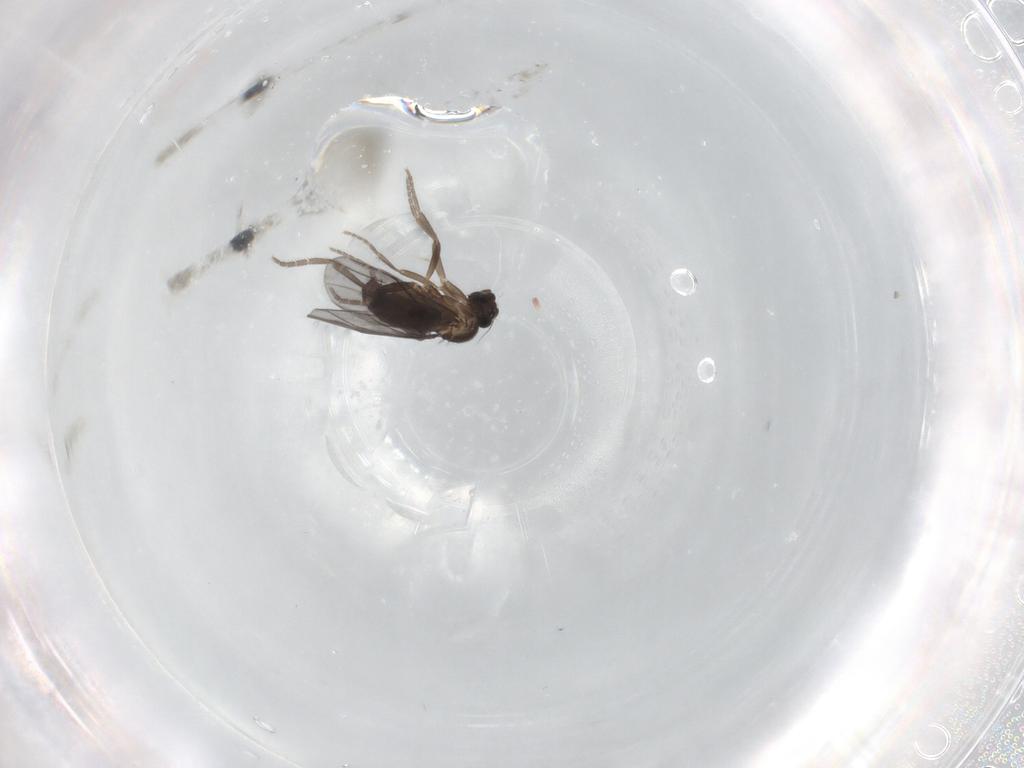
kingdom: Animalia
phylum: Arthropoda
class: Insecta
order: Diptera
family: Phoridae
